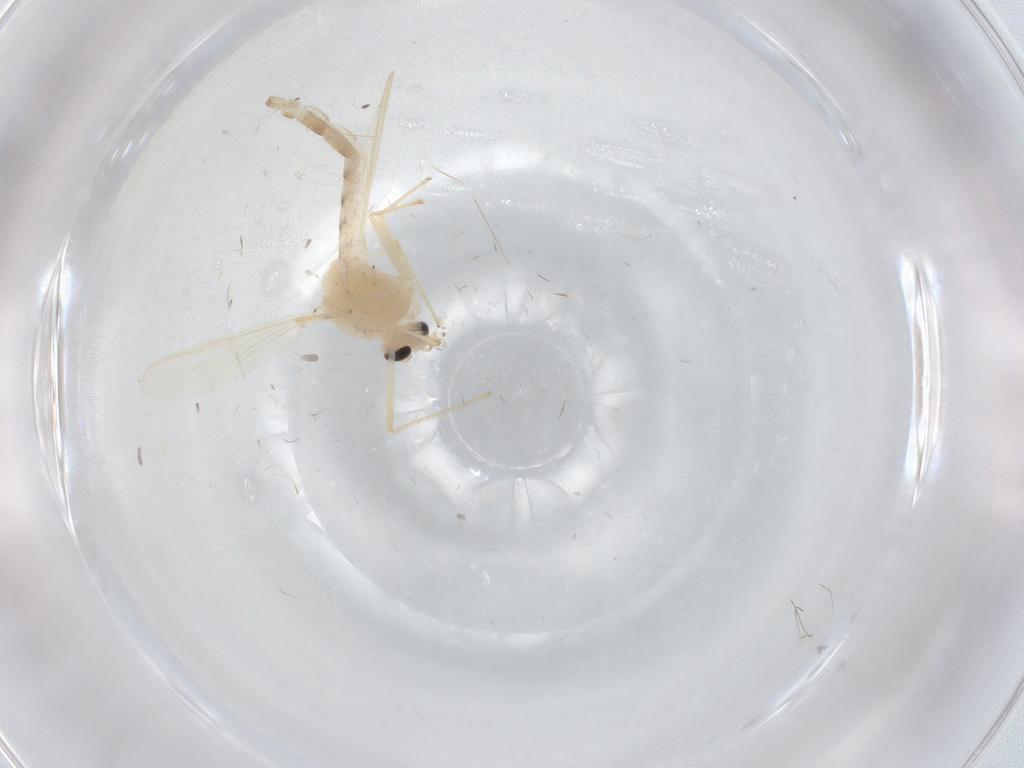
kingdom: Animalia
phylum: Arthropoda
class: Insecta
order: Diptera
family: Chironomidae
